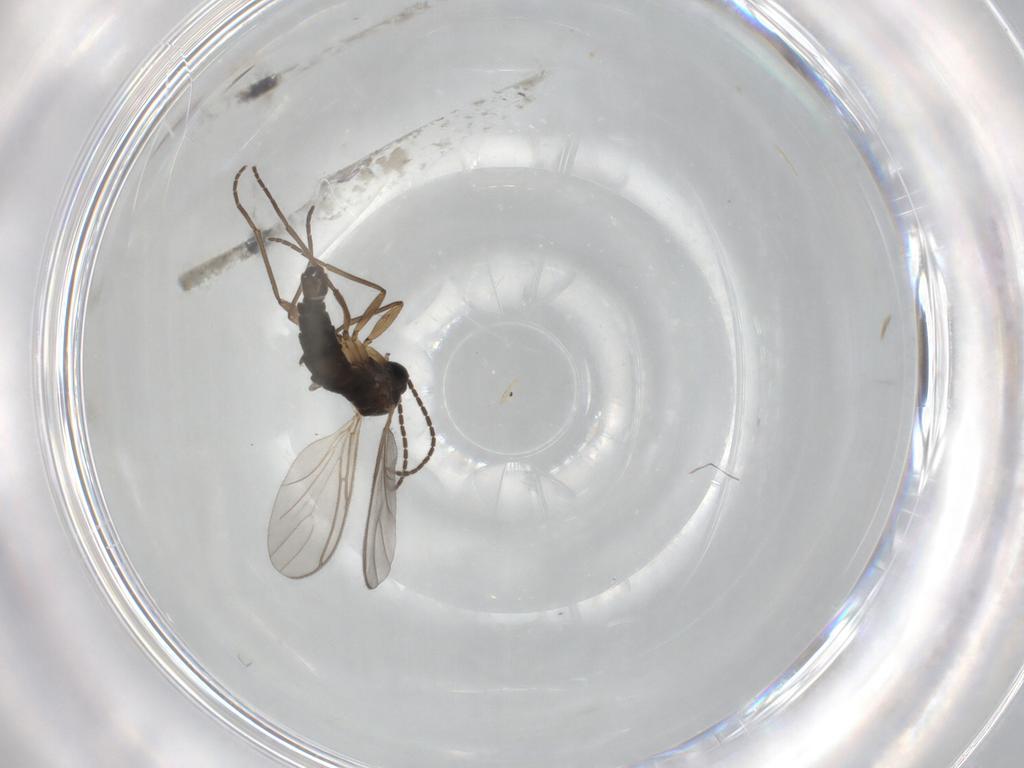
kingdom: Animalia
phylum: Arthropoda
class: Insecta
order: Diptera
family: Sciaridae
